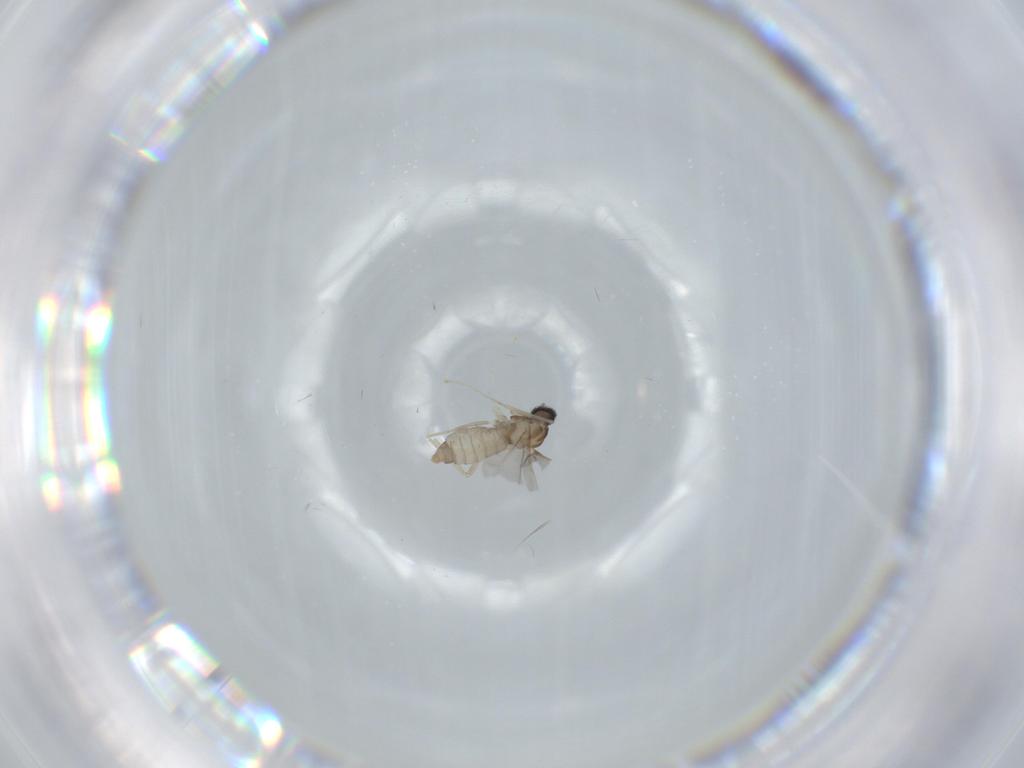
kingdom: Animalia
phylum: Arthropoda
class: Insecta
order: Diptera
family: Cecidomyiidae
